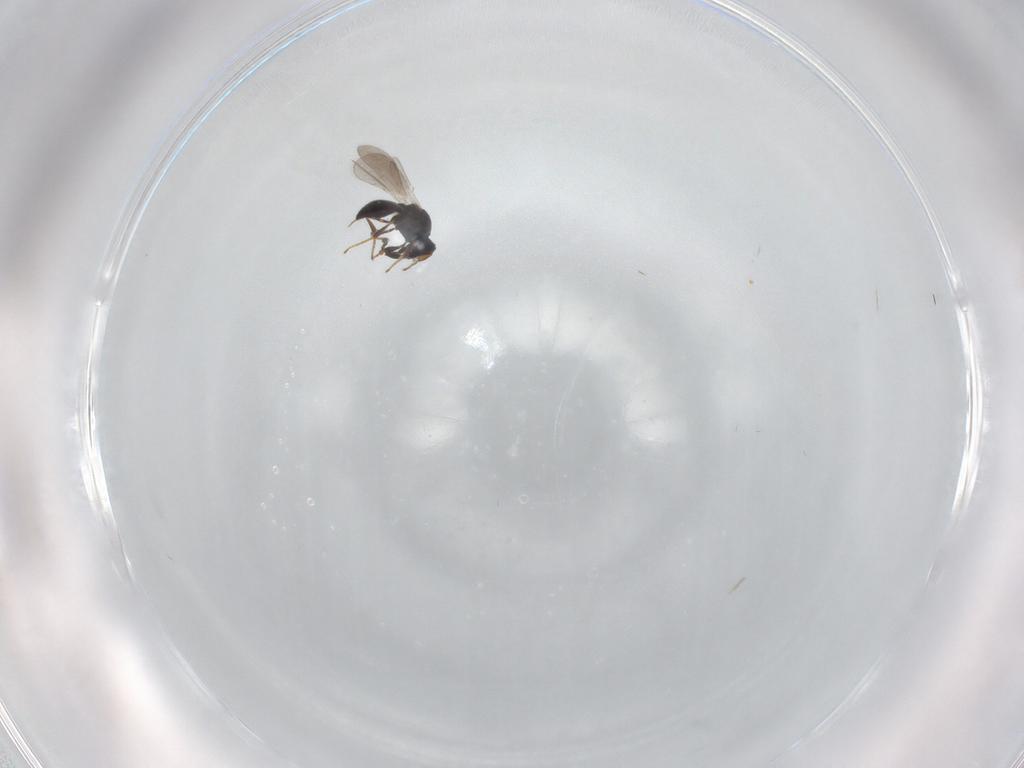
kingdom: Animalia
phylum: Arthropoda
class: Insecta
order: Hymenoptera
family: Platygastridae
